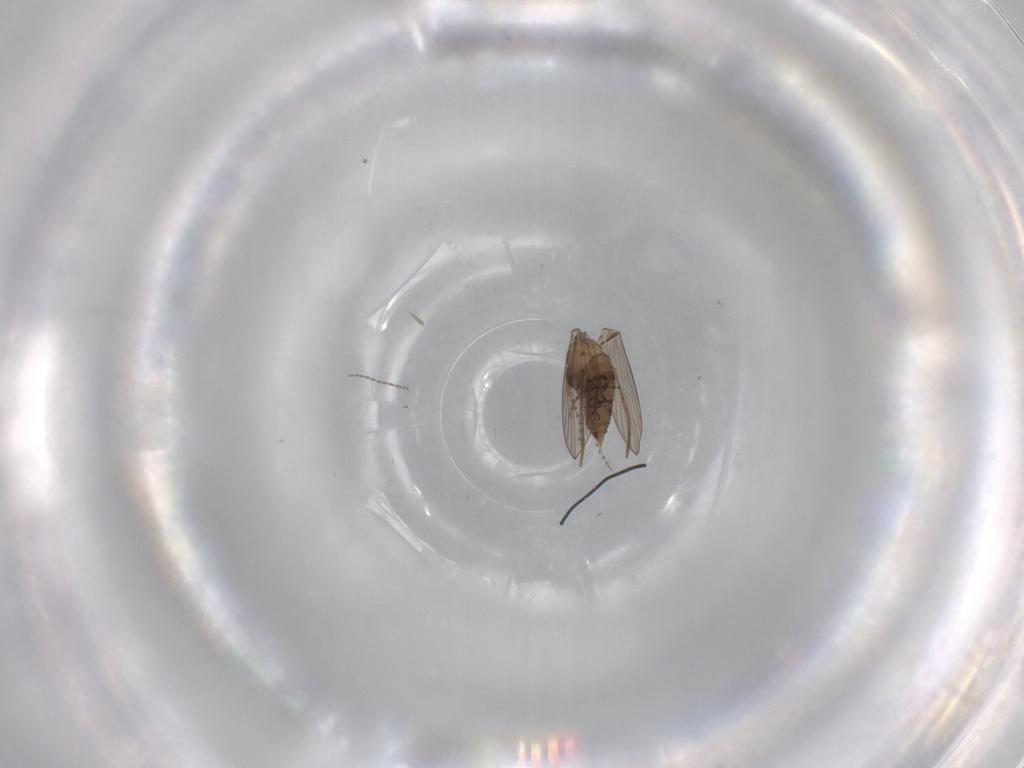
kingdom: Animalia
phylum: Arthropoda
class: Insecta
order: Diptera
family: Psychodidae
